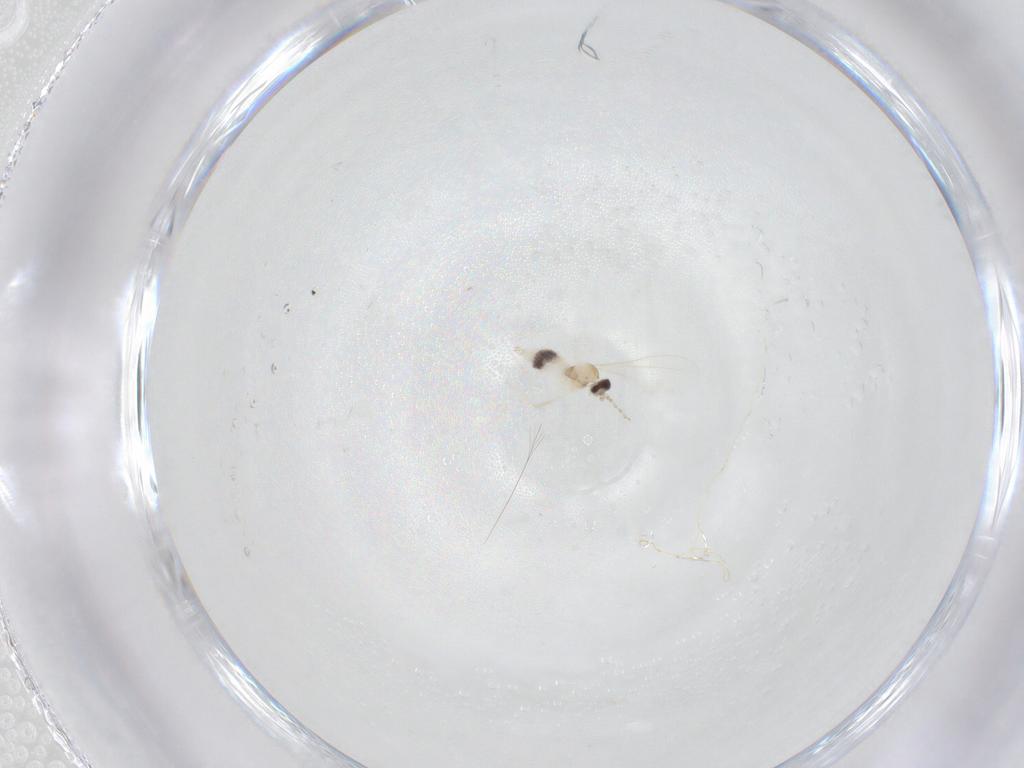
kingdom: Animalia
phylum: Arthropoda
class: Insecta
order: Diptera
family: Cecidomyiidae
